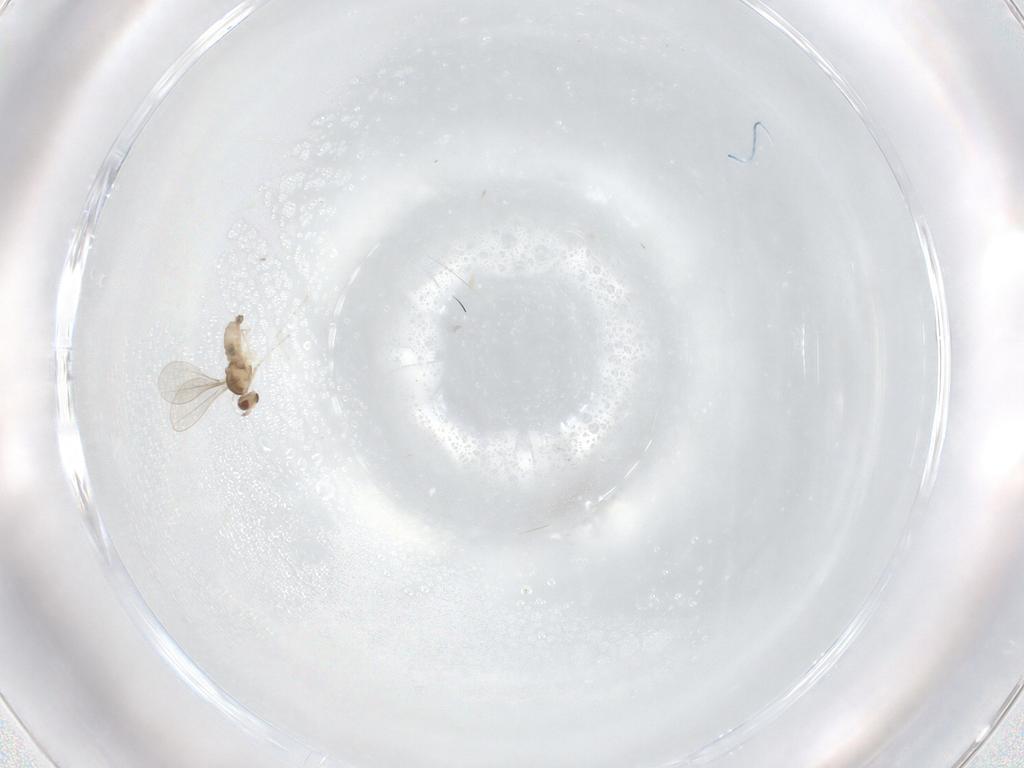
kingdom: Animalia
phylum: Arthropoda
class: Insecta
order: Diptera
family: Cecidomyiidae
